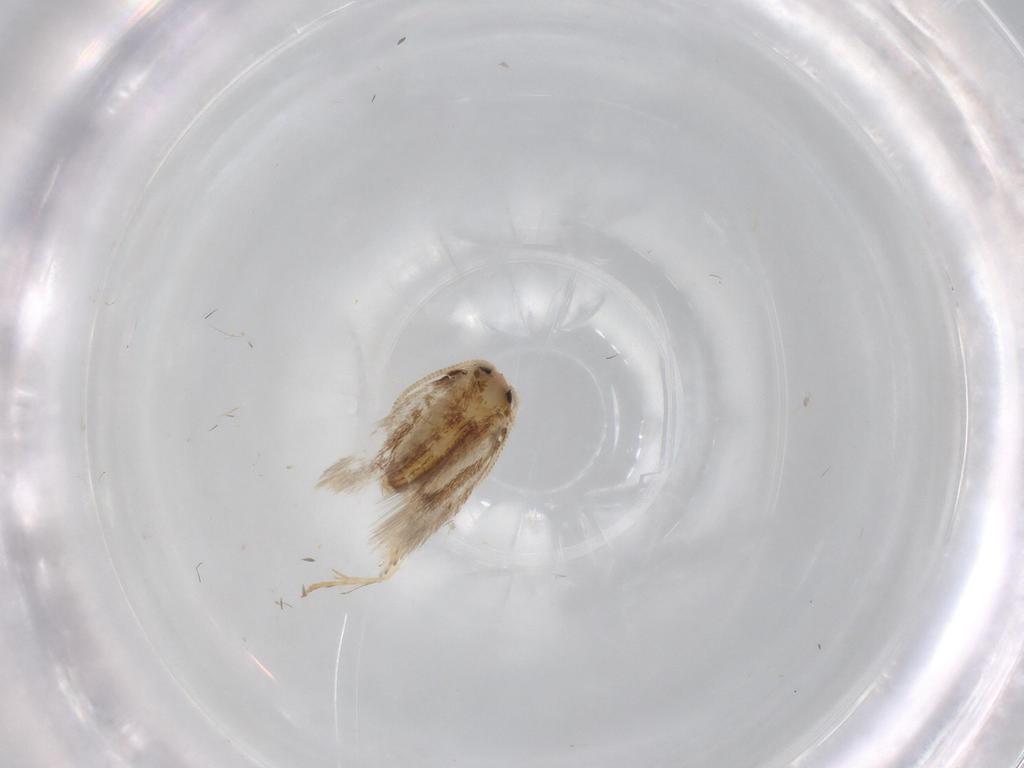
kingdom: Animalia
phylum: Arthropoda
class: Insecta
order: Lepidoptera
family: Nepticulidae
